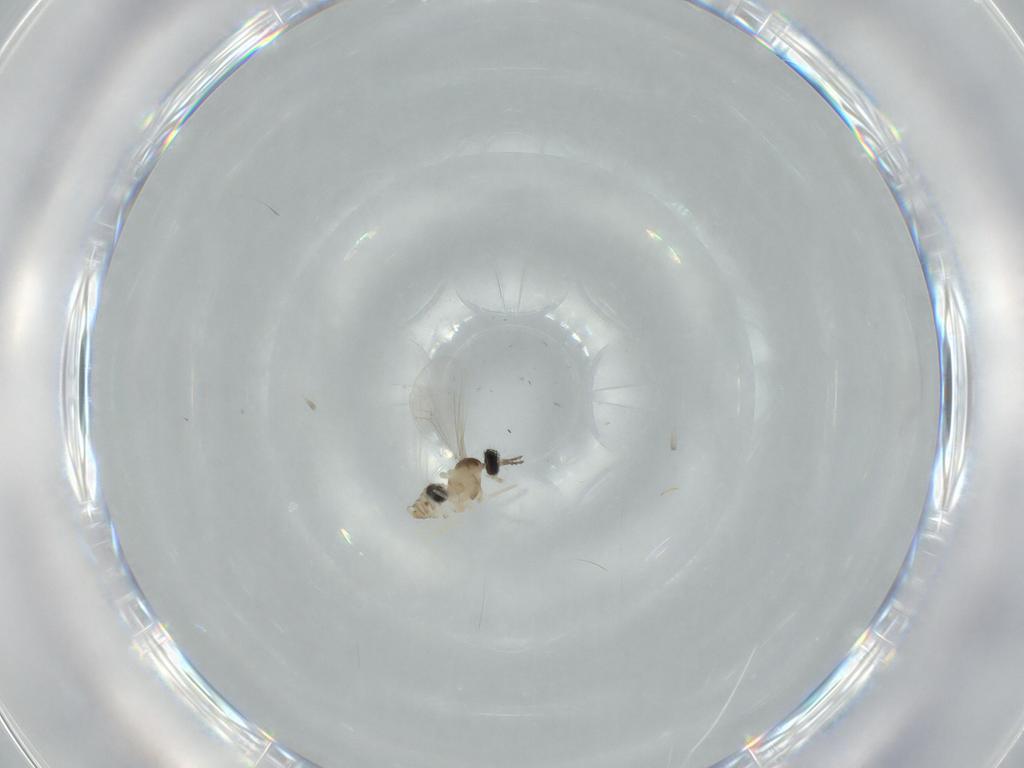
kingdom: Animalia
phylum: Arthropoda
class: Insecta
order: Diptera
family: Cecidomyiidae
